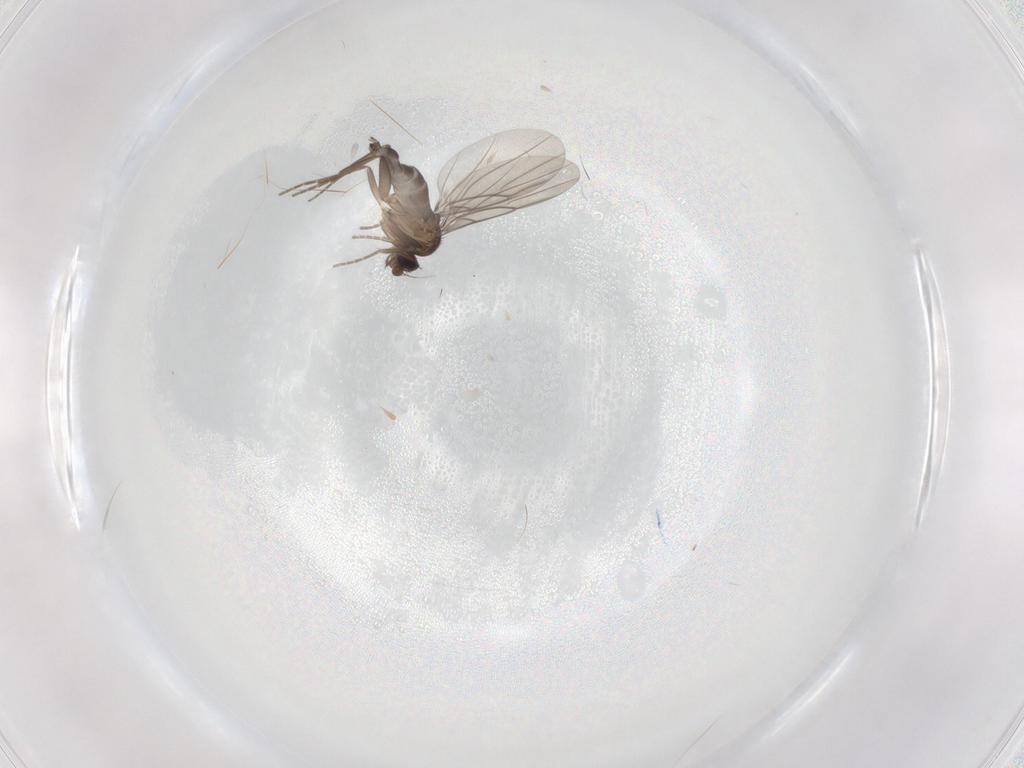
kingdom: Animalia
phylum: Arthropoda
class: Insecta
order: Diptera
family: Phoridae
